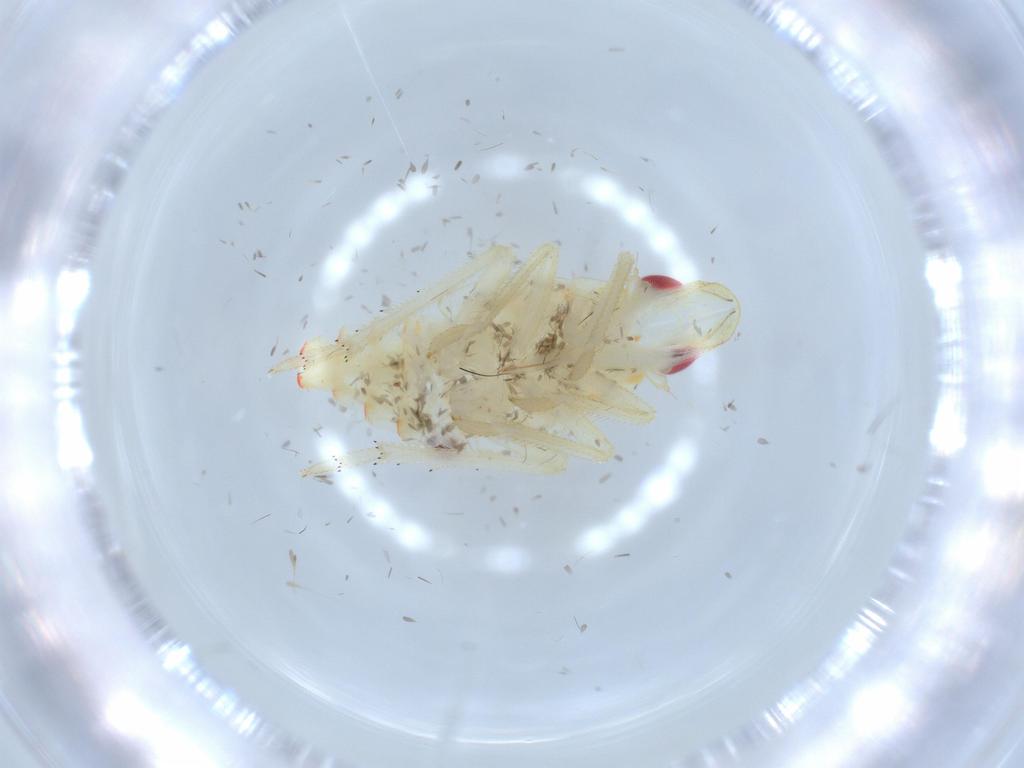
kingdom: Animalia
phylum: Arthropoda
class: Insecta
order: Hemiptera
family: Tropiduchidae
